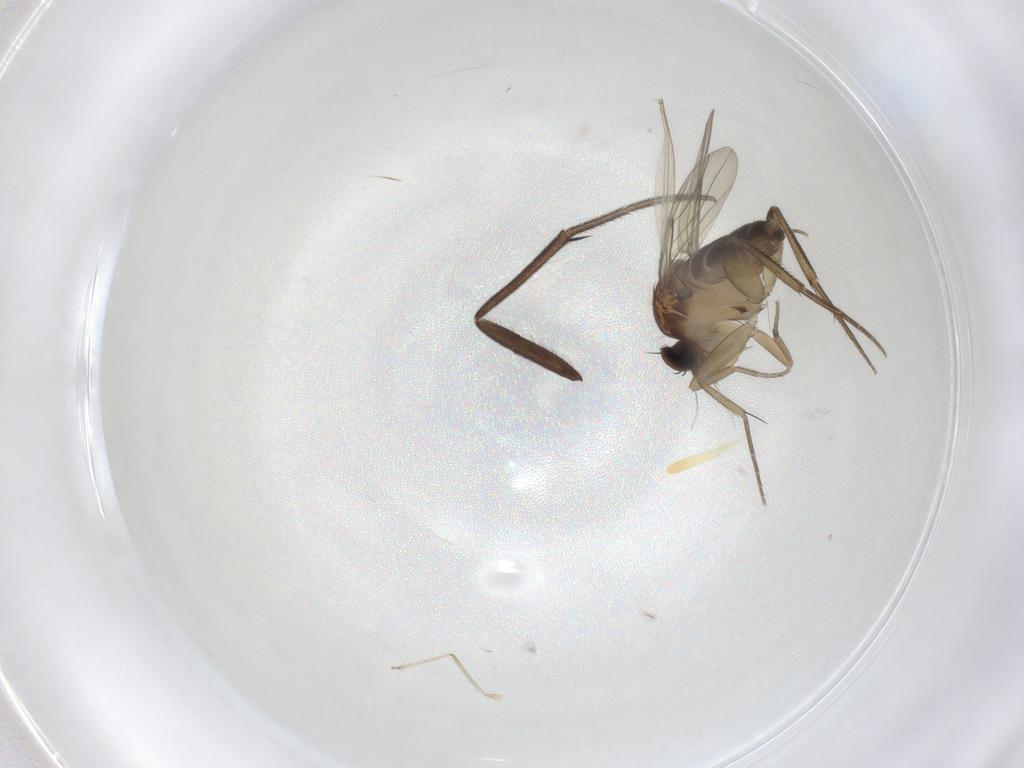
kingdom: Animalia
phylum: Arthropoda
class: Insecta
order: Diptera
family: Phoridae
